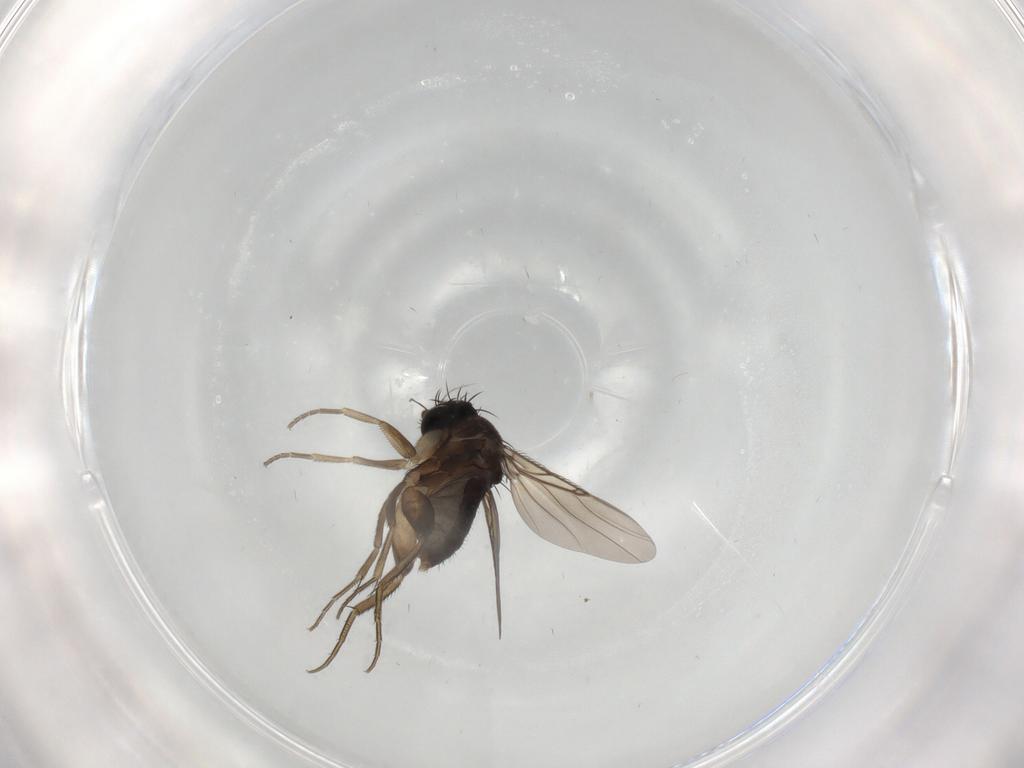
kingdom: Animalia
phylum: Arthropoda
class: Insecta
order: Diptera
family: Phoridae
